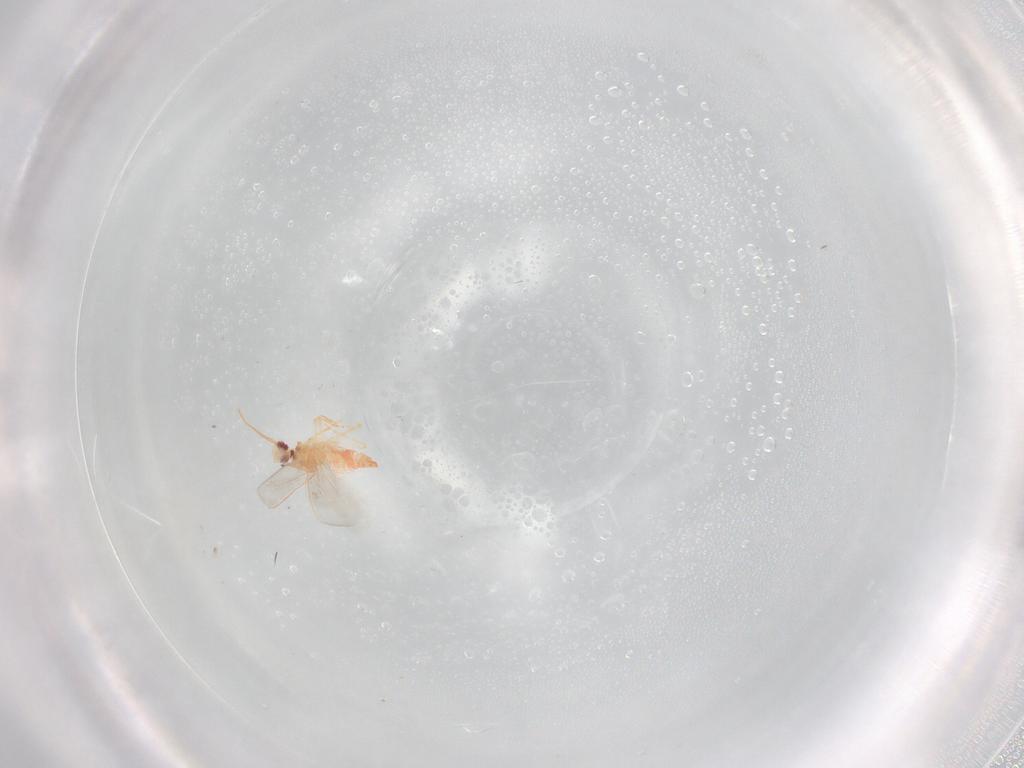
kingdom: Animalia
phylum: Arthropoda
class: Insecta
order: Hemiptera
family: Aleyrodidae
